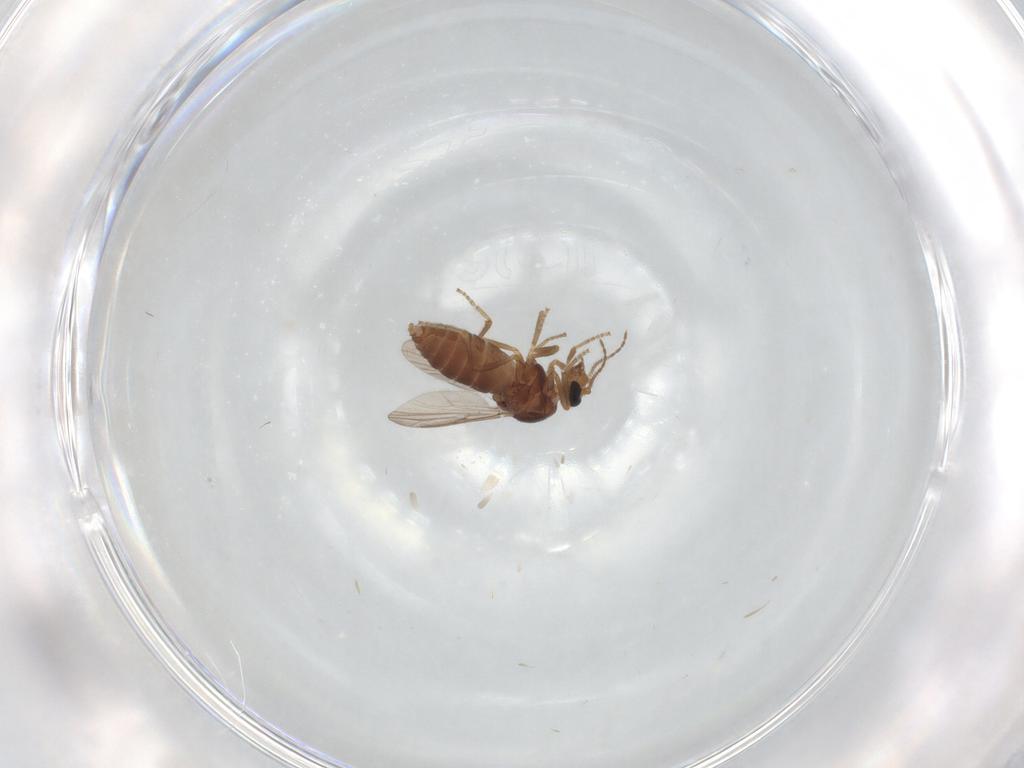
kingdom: Animalia
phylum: Arthropoda
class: Insecta
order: Diptera
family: Ceratopogonidae
